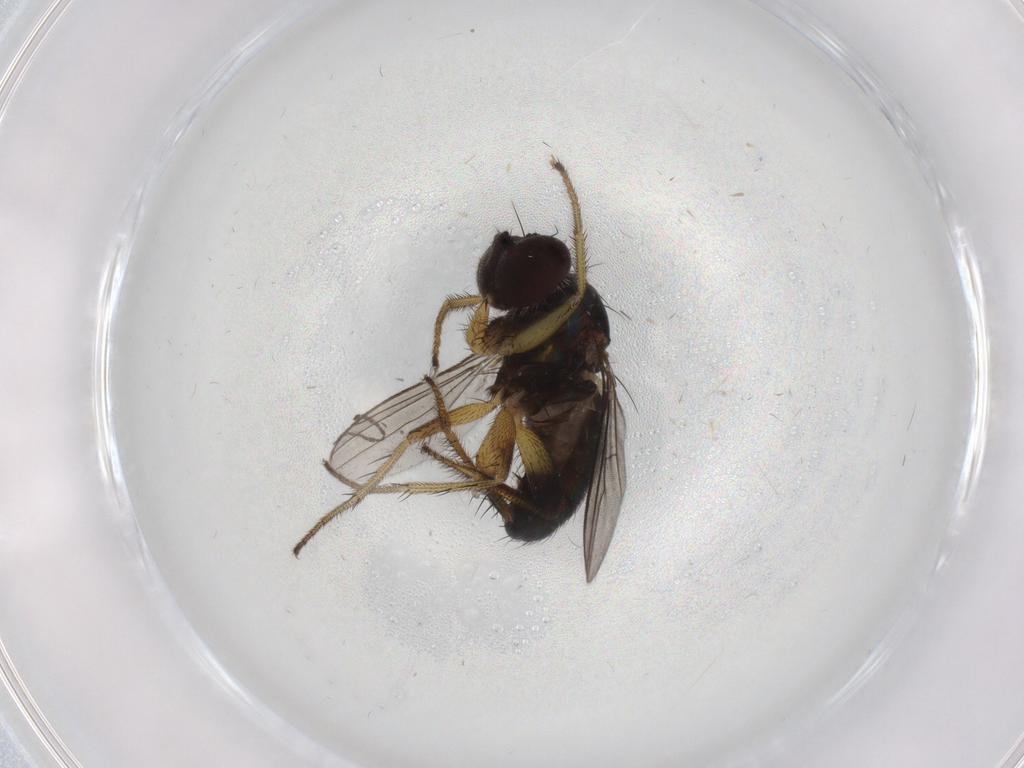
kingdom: Animalia
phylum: Arthropoda
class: Insecta
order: Diptera
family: Dolichopodidae
